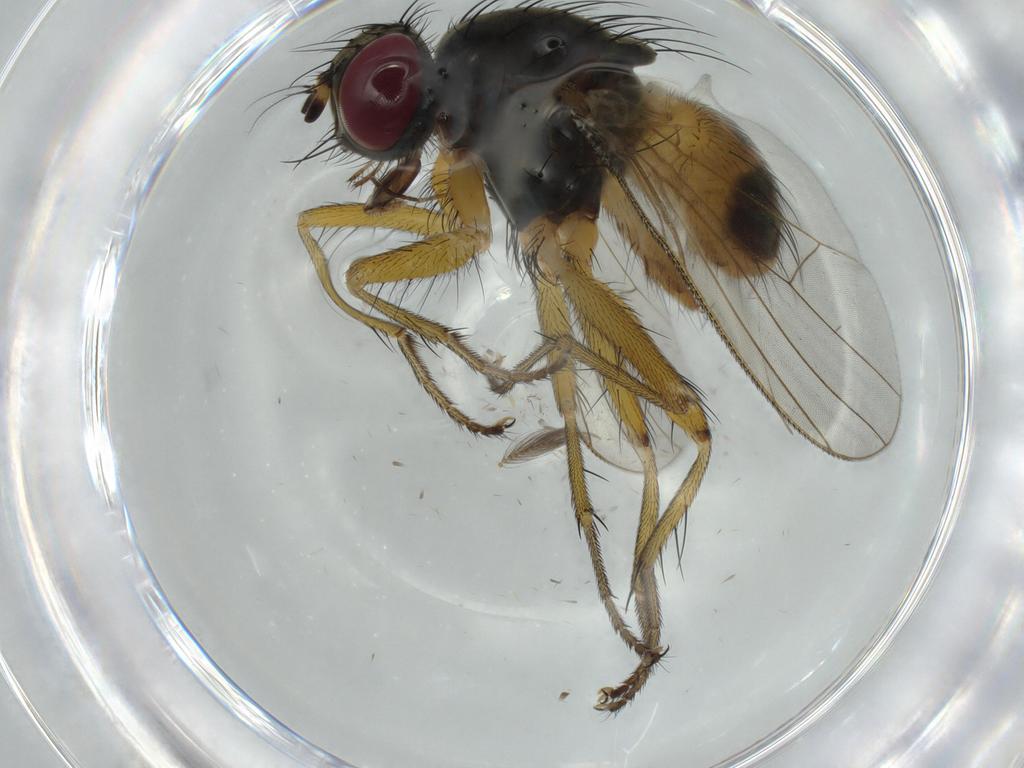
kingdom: Animalia
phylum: Arthropoda
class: Insecta
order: Diptera
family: Muscidae
